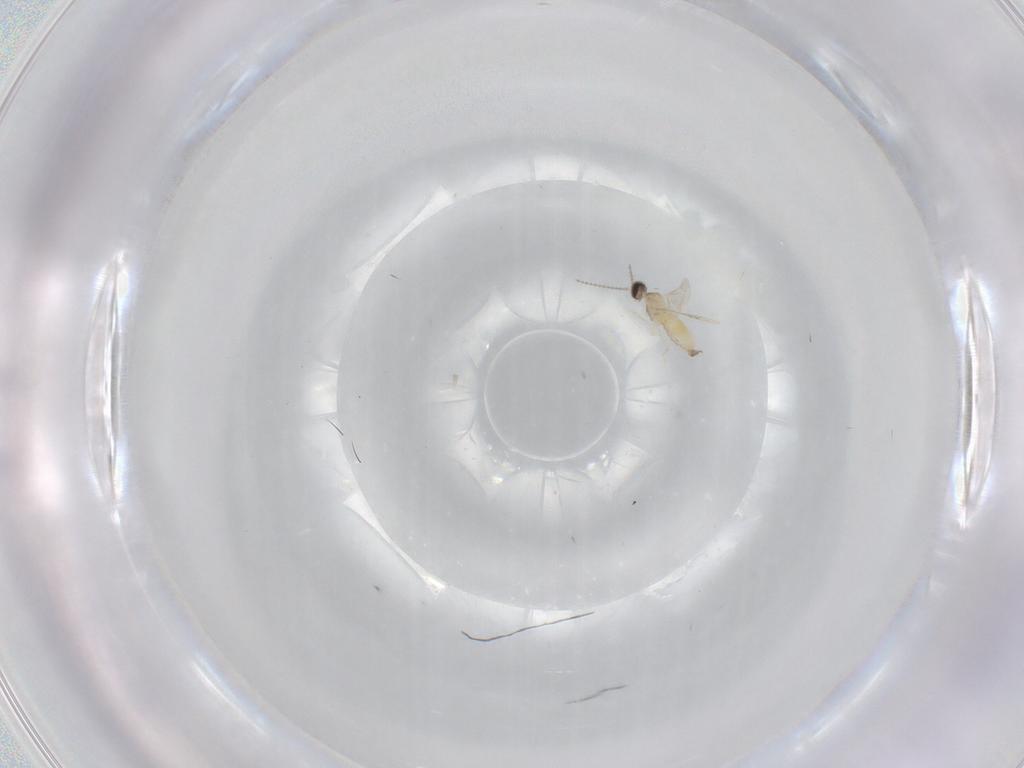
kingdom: Animalia
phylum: Arthropoda
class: Insecta
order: Diptera
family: Cecidomyiidae
